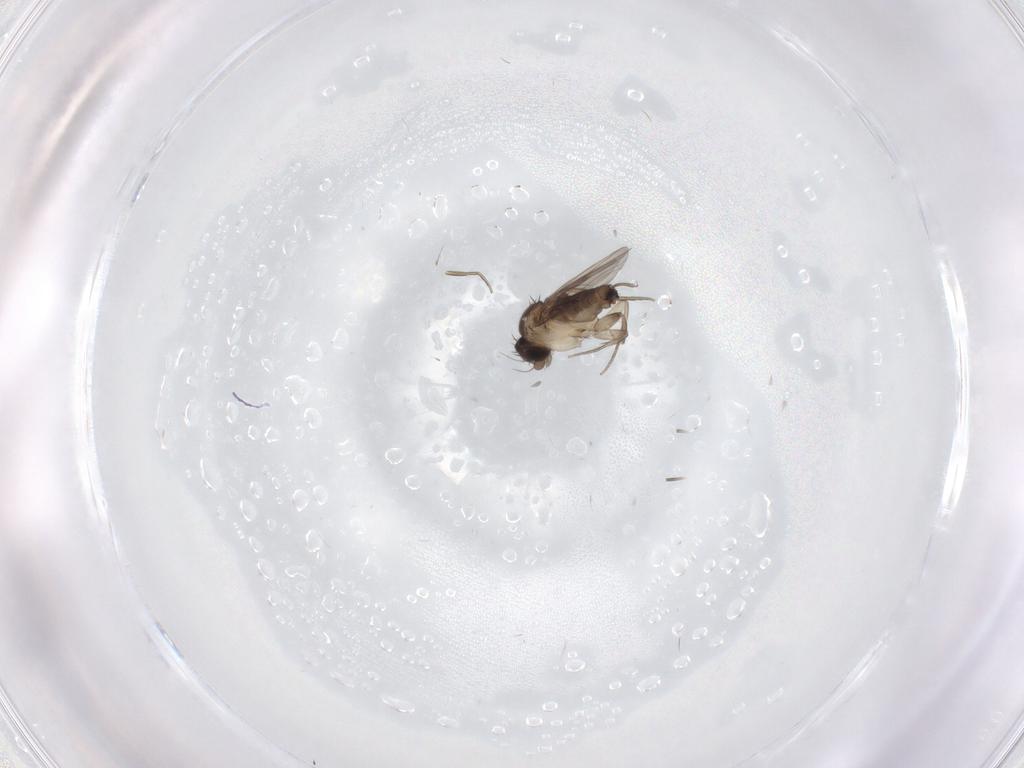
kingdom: Animalia
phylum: Arthropoda
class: Insecta
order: Diptera
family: Phoridae
